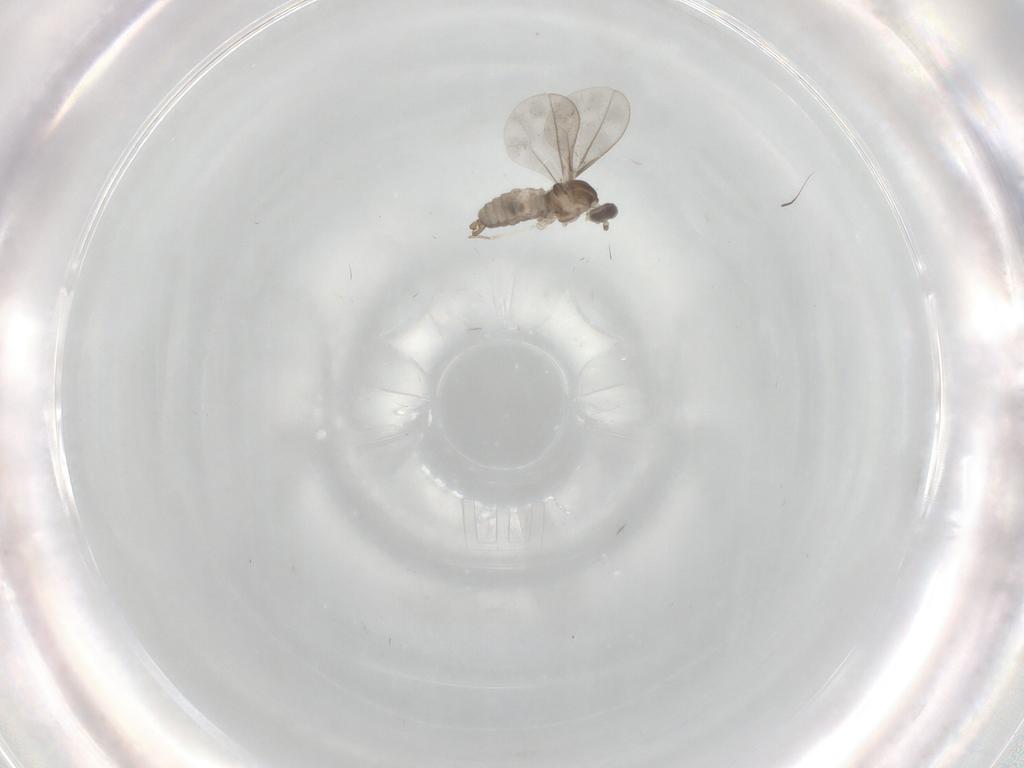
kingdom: Animalia
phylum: Arthropoda
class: Insecta
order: Diptera
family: Cecidomyiidae
